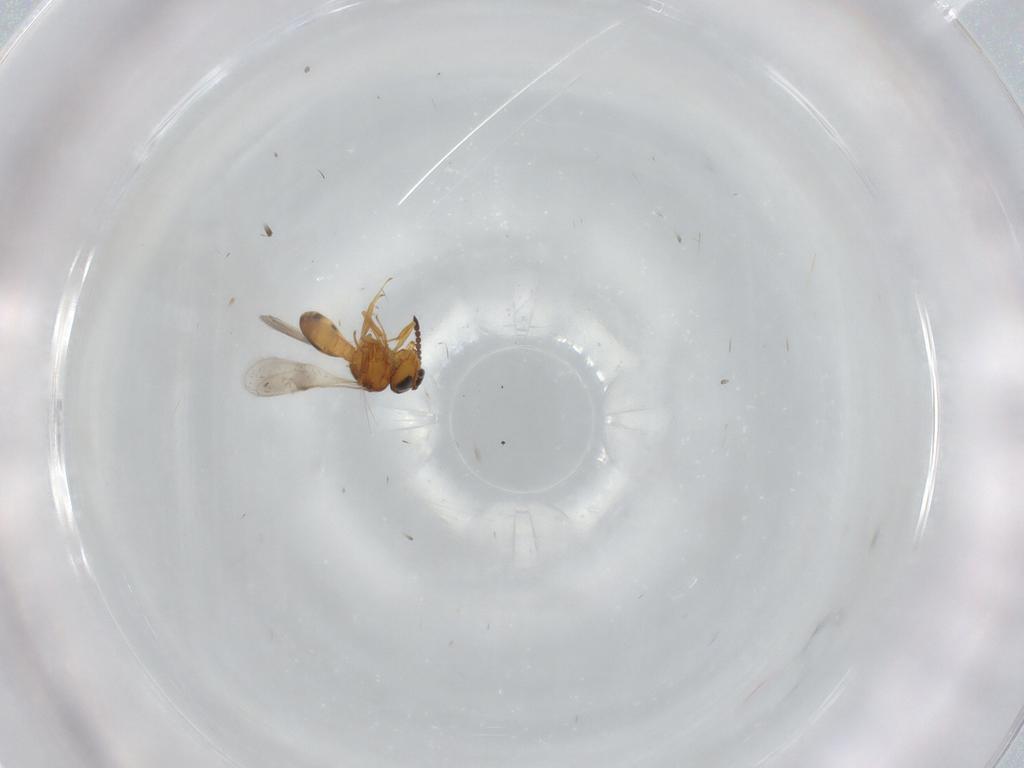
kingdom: Animalia
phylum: Arthropoda
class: Insecta
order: Hymenoptera
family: Scelionidae
